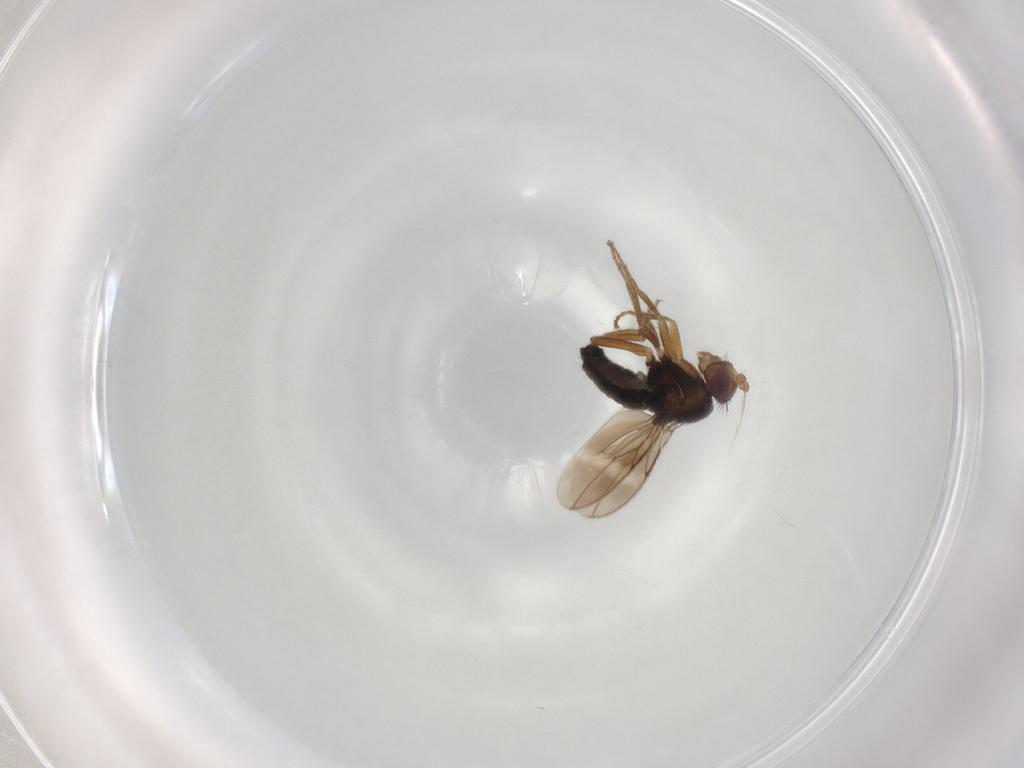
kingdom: Animalia
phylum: Arthropoda
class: Insecta
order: Diptera
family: Sphaeroceridae
